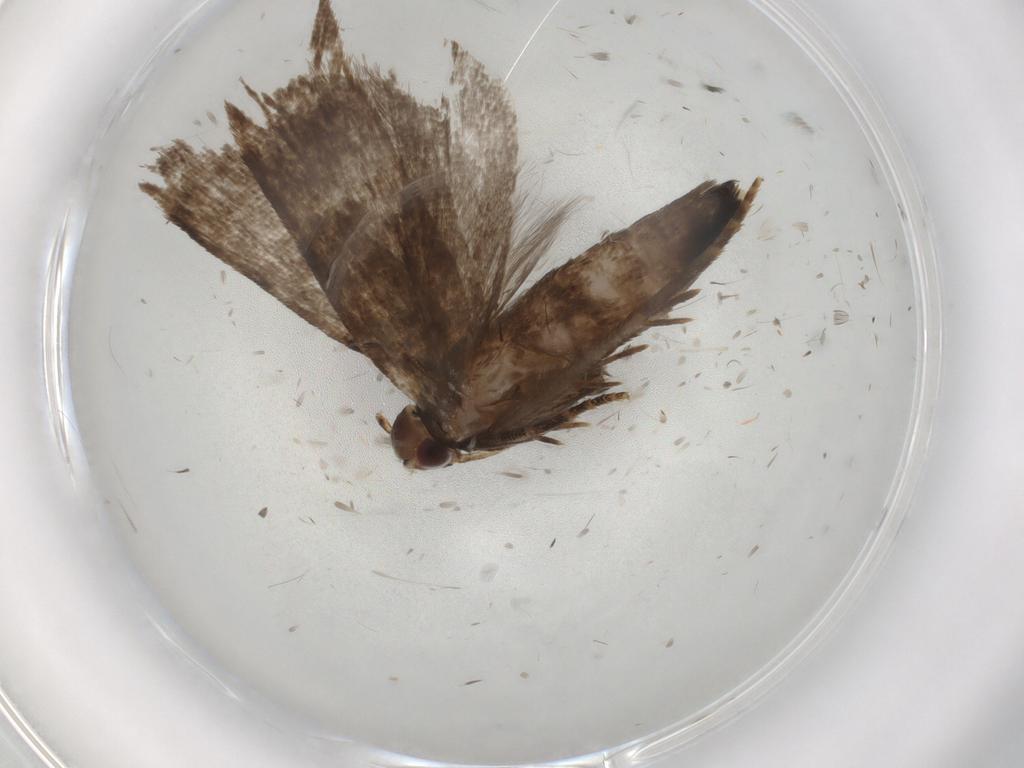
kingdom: Animalia
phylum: Arthropoda
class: Insecta
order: Lepidoptera
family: Gelechiidae
